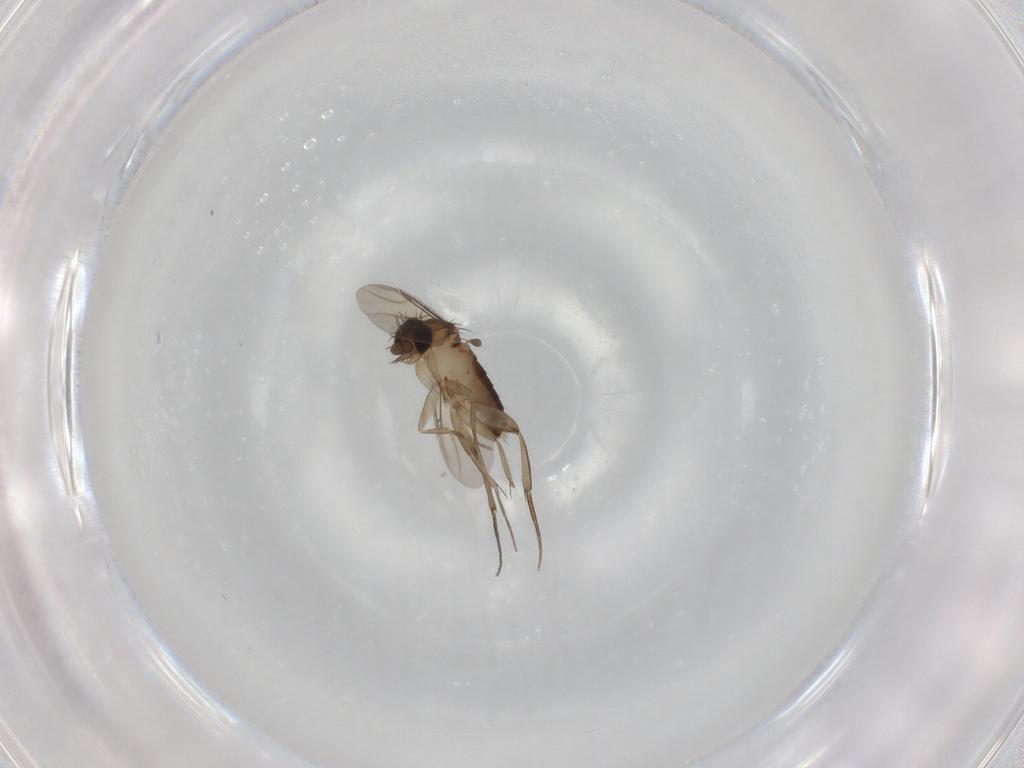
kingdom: Animalia
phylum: Arthropoda
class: Insecta
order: Diptera
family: Phoridae
